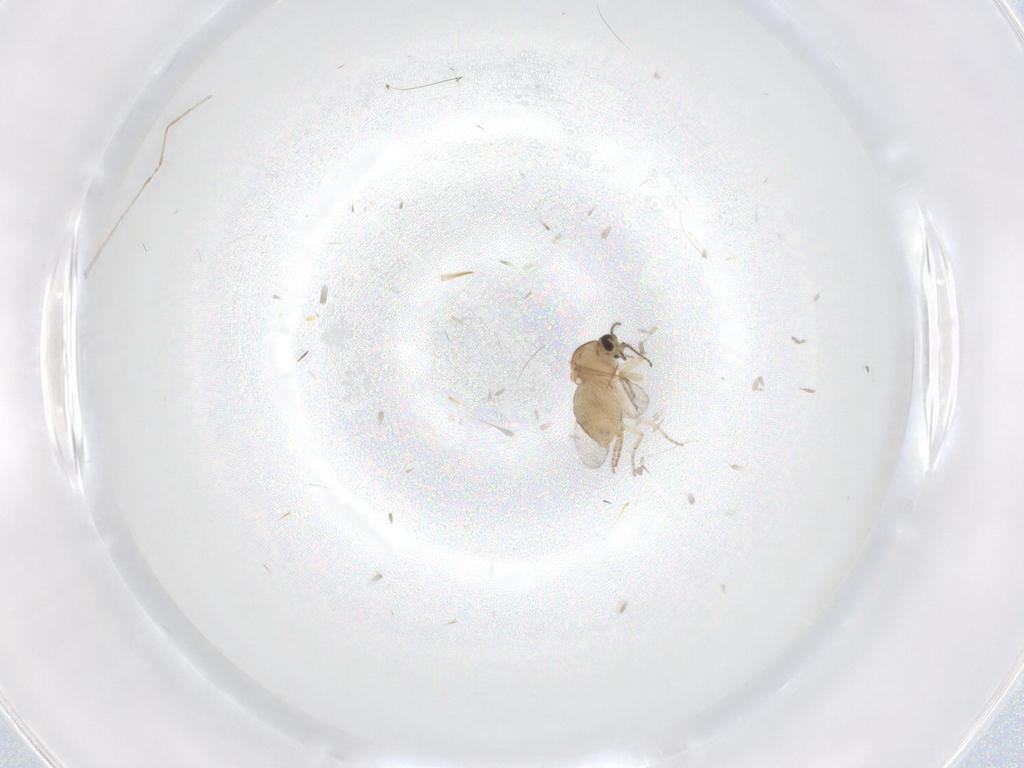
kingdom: Animalia
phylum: Arthropoda
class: Insecta
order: Diptera
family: Ceratopogonidae
